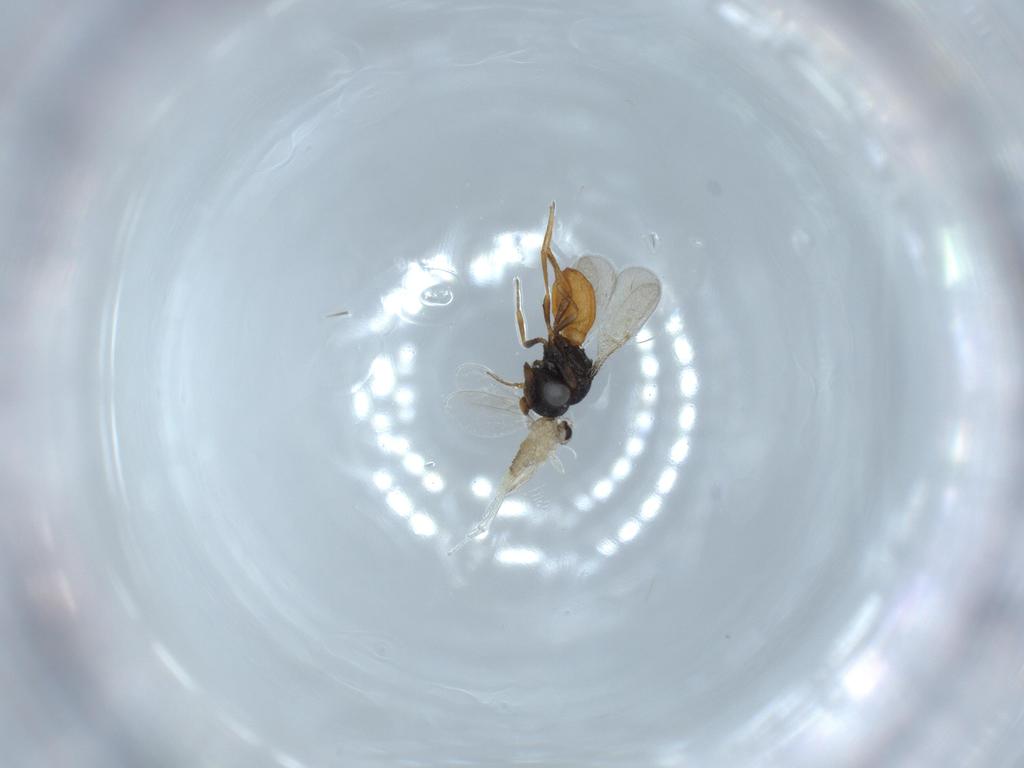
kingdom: Animalia
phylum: Arthropoda
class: Insecta
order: Diptera
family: Cecidomyiidae
